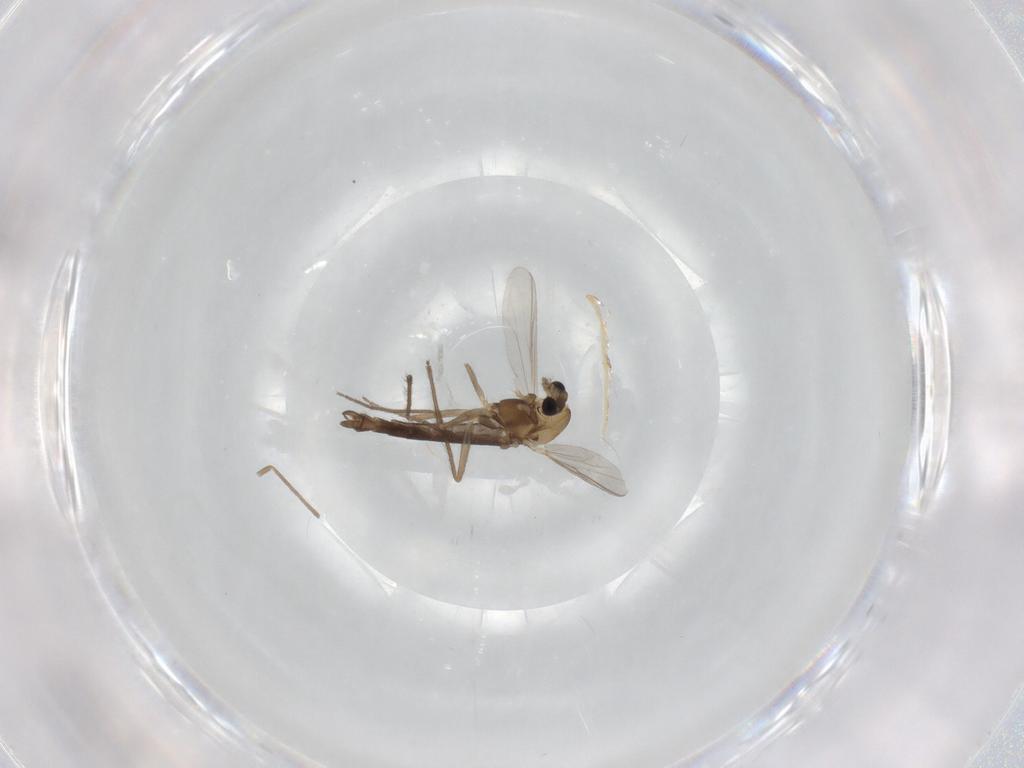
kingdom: Animalia
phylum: Arthropoda
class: Insecta
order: Diptera
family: Chironomidae
